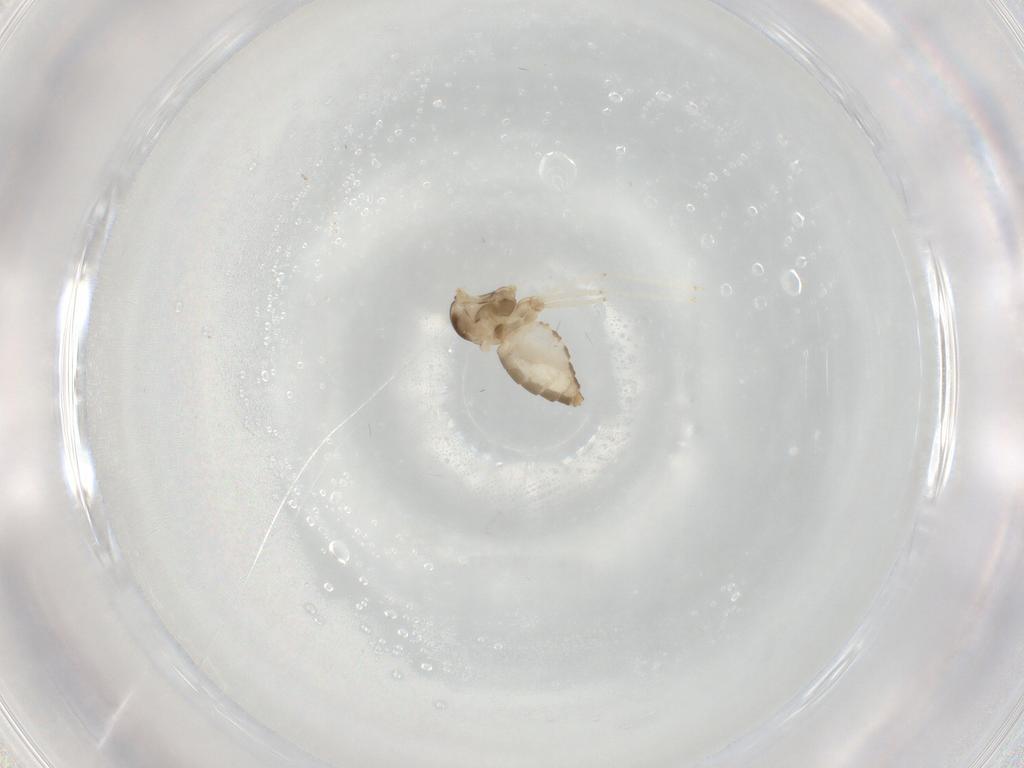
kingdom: Animalia
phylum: Arthropoda
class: Insecta
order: Diptera
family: Cecidomyiidae
